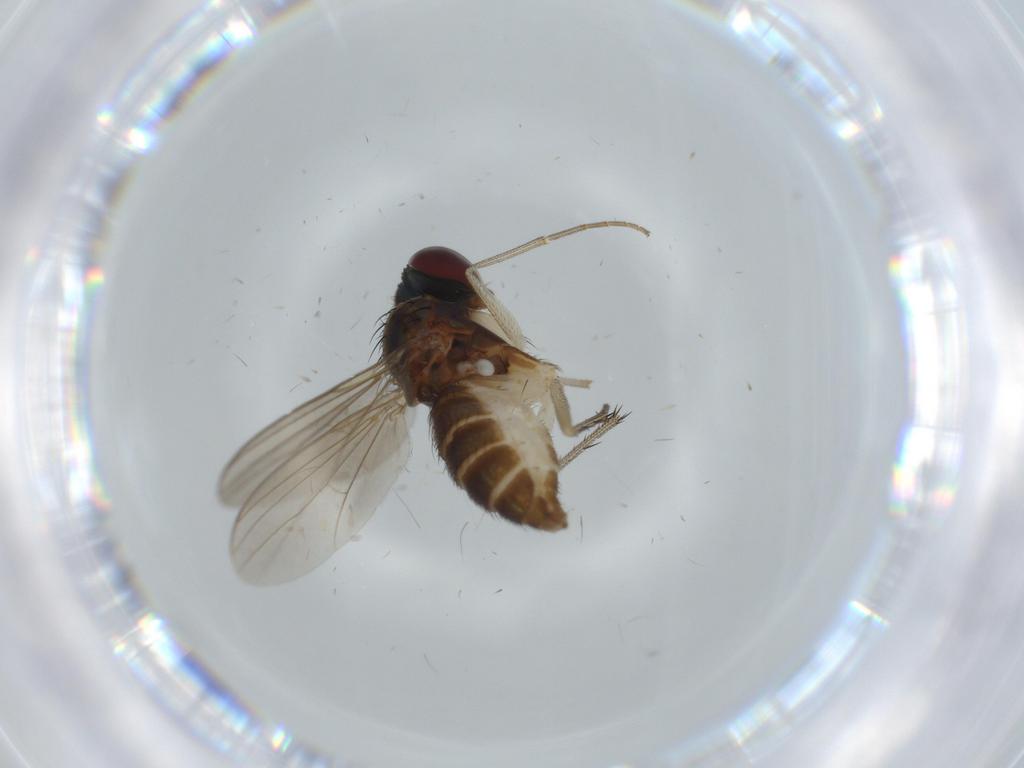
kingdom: Animalia
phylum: Arthropoda
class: Insecta
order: Diptera
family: Dolichopodidae
